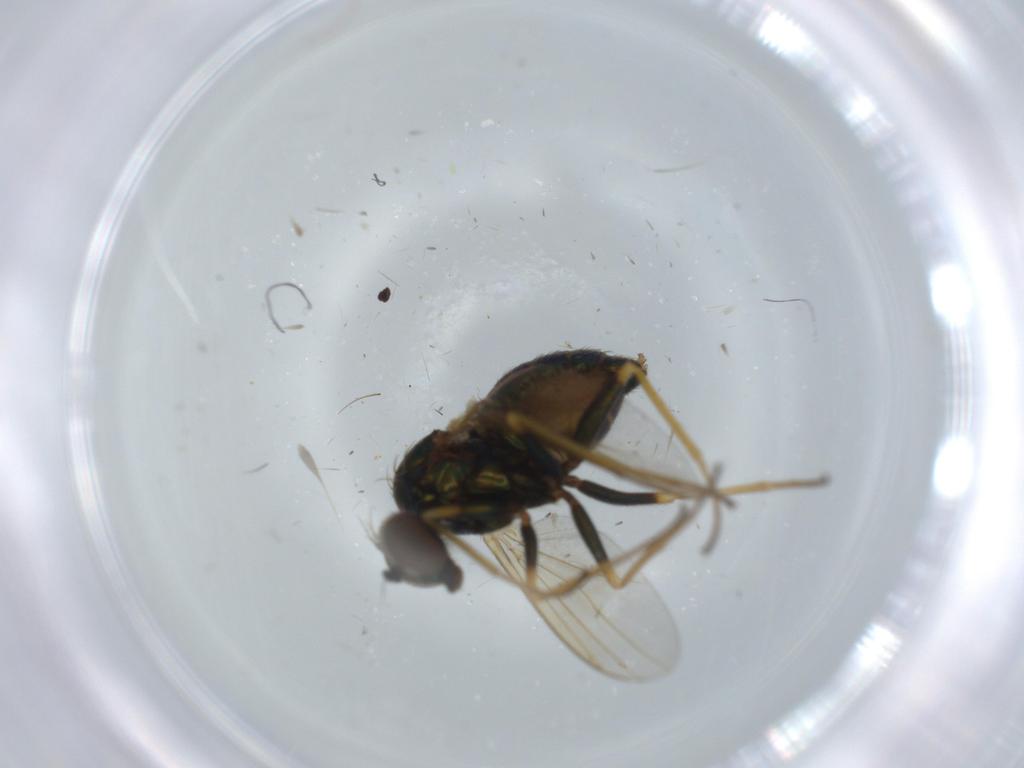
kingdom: Animalia
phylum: Arthropoda
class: Insecta
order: Diptera
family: Dolichopodidae
